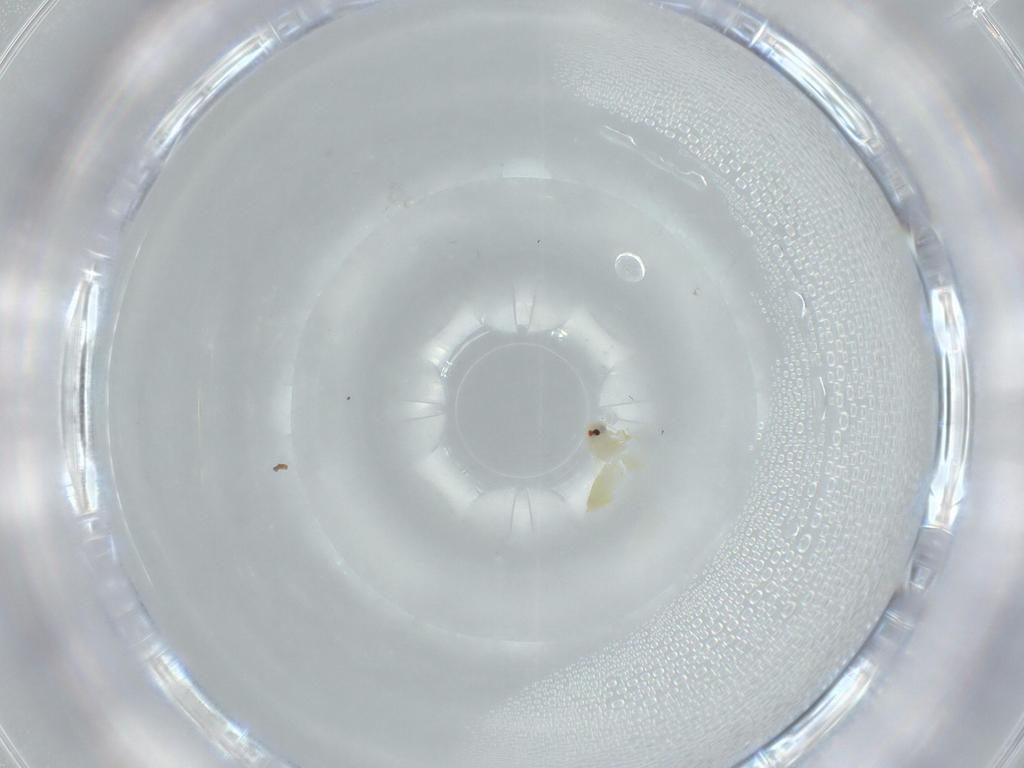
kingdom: Animalia
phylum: Arthropoda
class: Insecta
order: Hemiptera
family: Aleyrodidae
